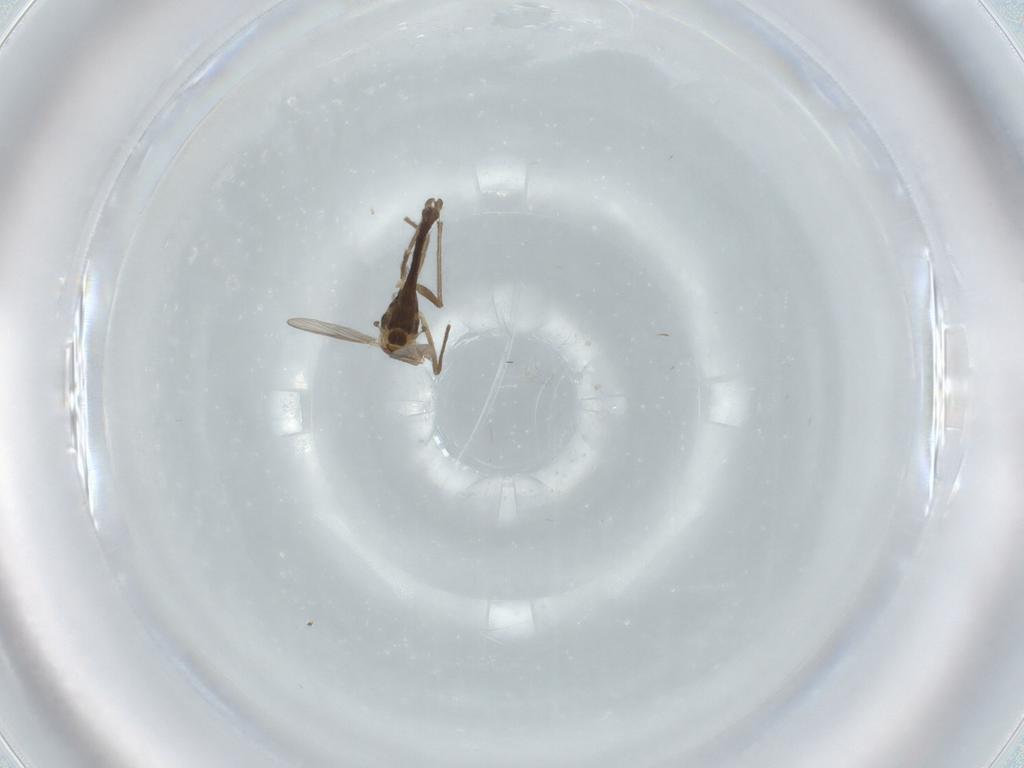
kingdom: Animalia
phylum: Arthropoda
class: Insecta
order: Diptera
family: Chironomidae
